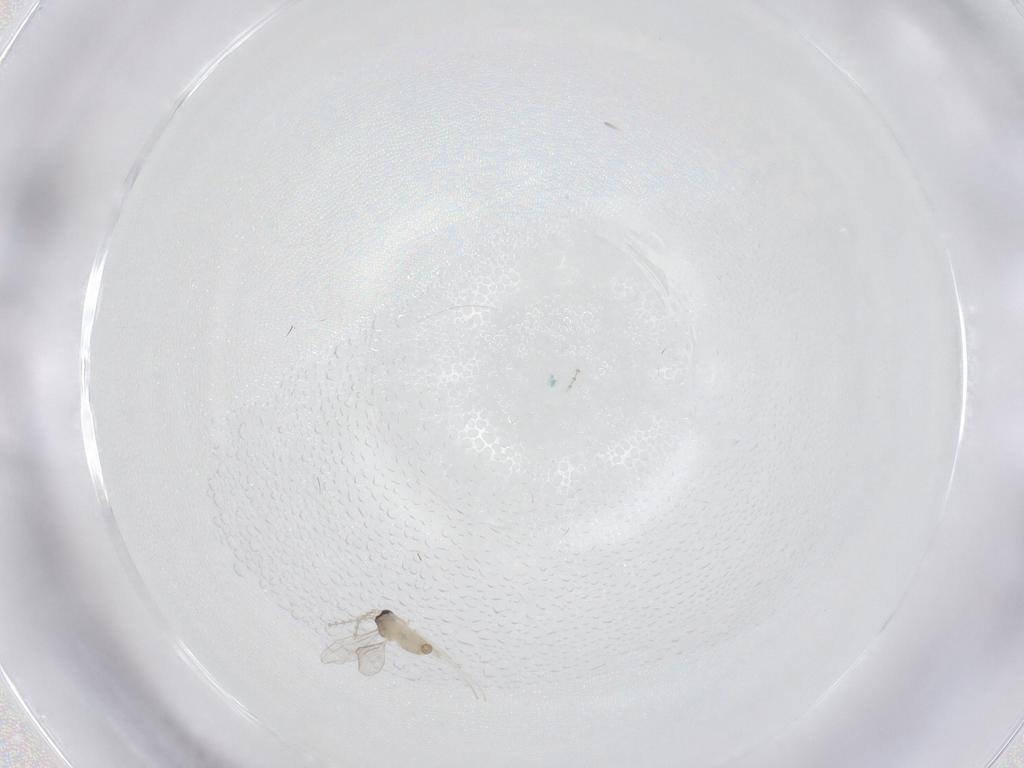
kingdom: Animalia
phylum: Arthropoda
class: Insecta
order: Diptera
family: Cecidomyiidae
